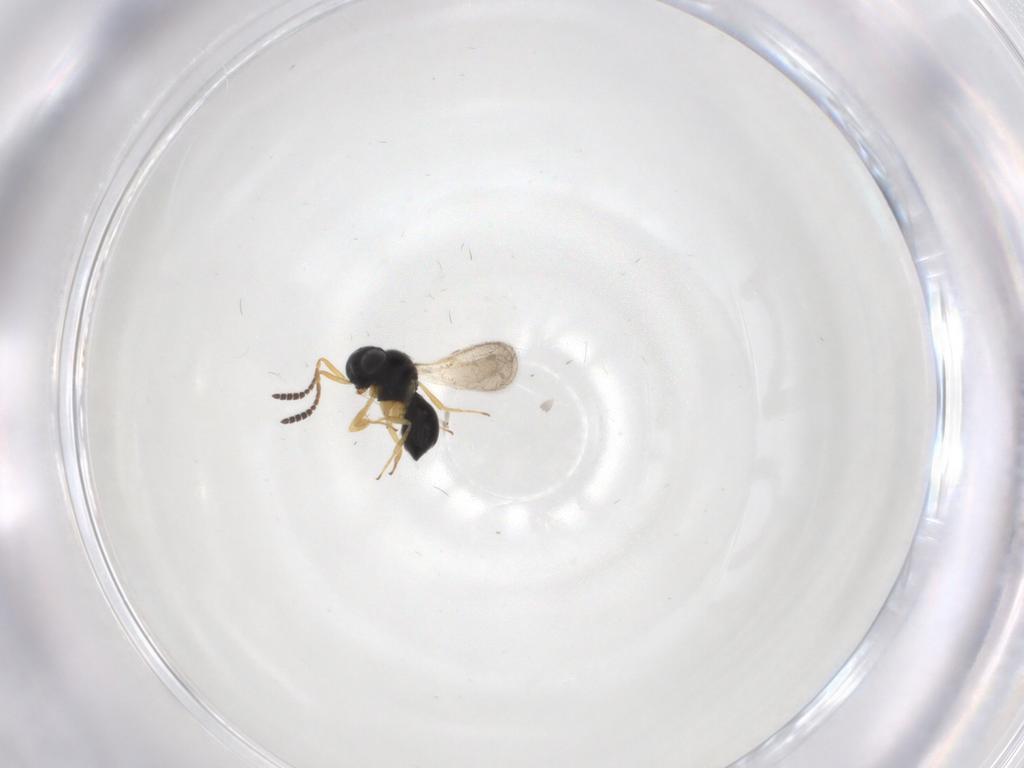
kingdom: Animalia
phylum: Arthropoda
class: Insecta
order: Hymenoptera
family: Scelionidae
